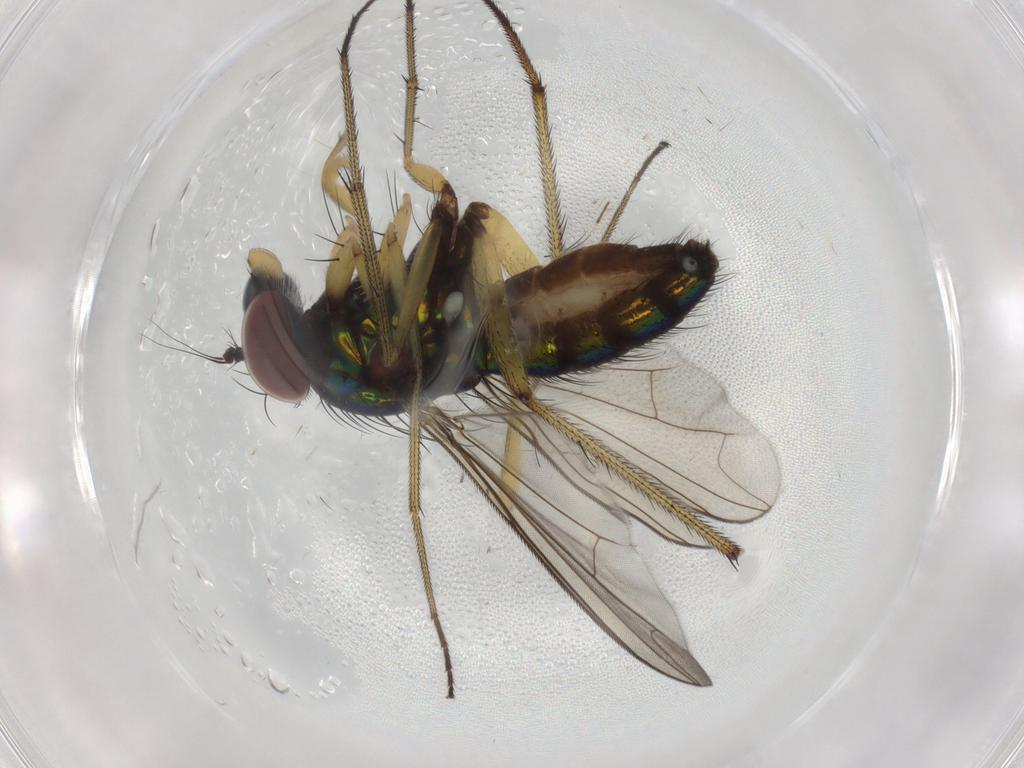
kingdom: Animalia
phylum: Arthropoda
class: Insecta
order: Diptera
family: Dolichopodidae
